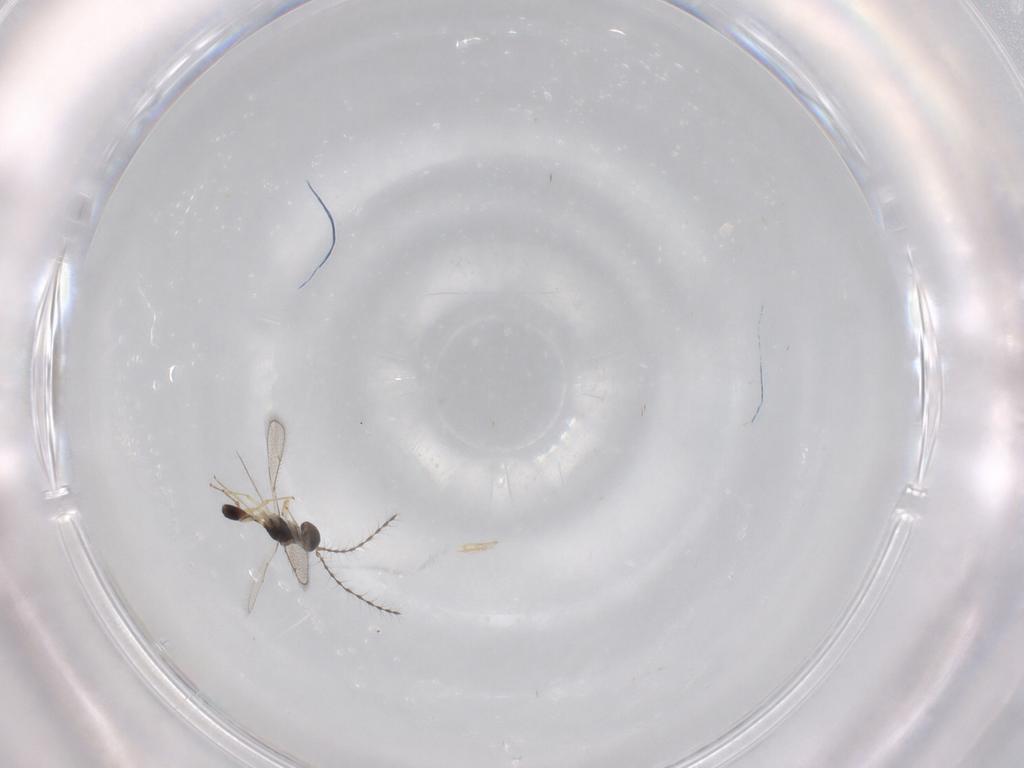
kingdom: Animalia
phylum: Arthropoda
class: Insecta
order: Hymenoptera
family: Diparidae
